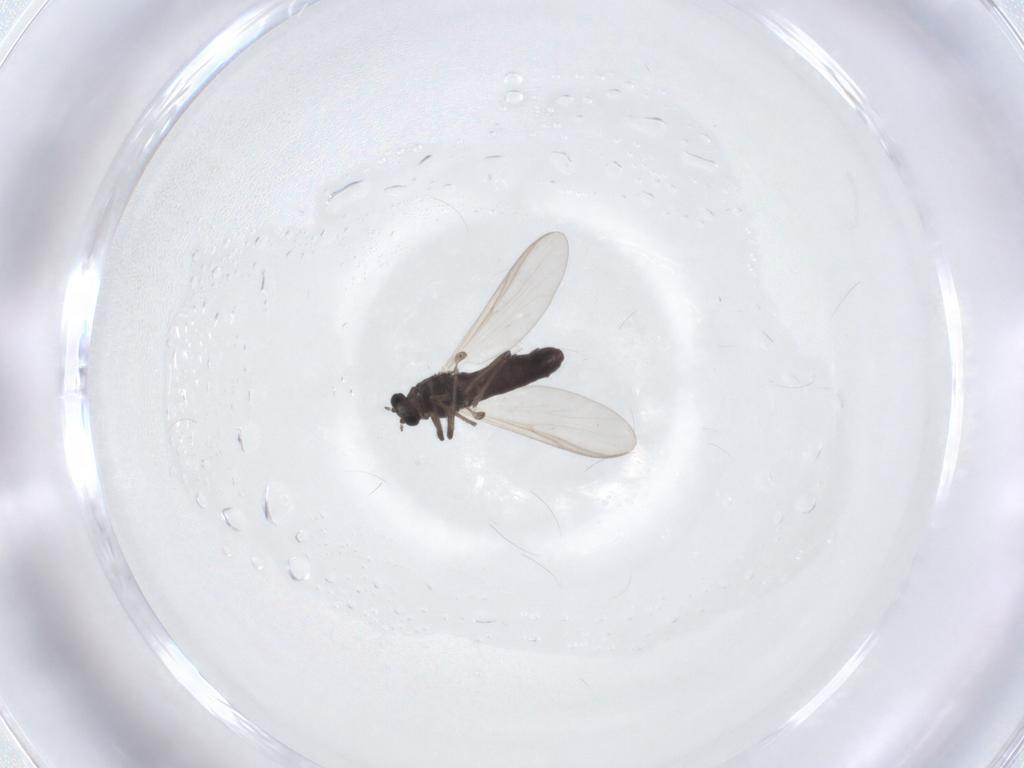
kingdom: Animalia
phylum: Arthropoda
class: Insecta
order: Diptera
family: Chironomidae
